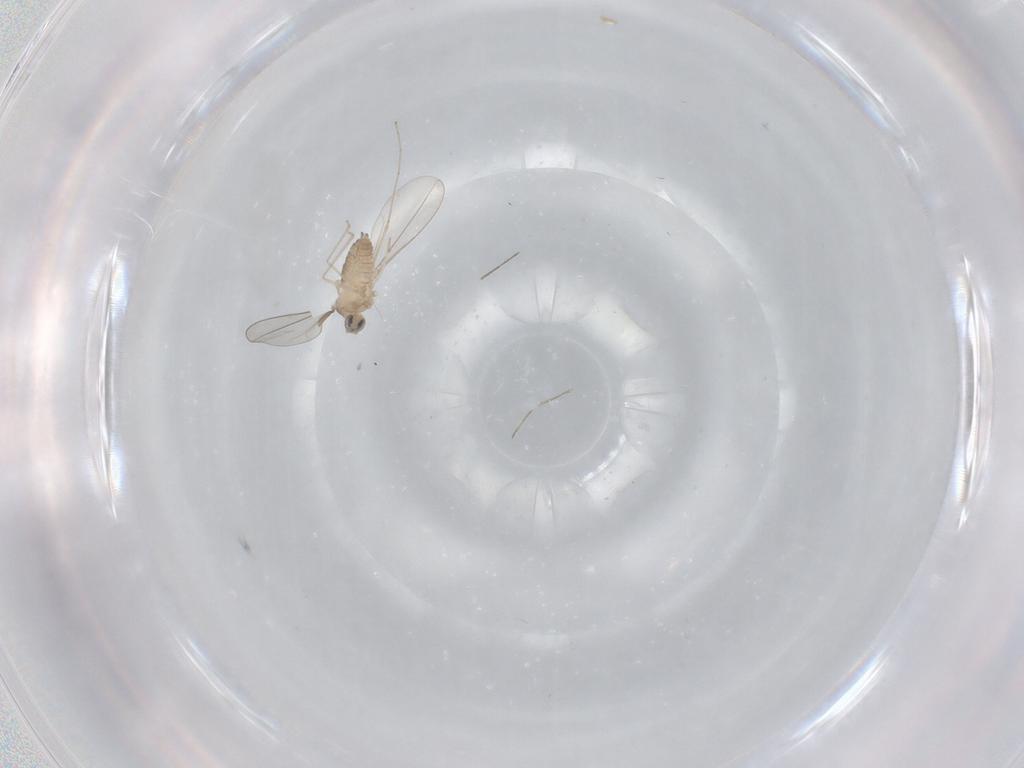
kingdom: Animalia
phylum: Arthropoda
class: Insecta
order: Diptera
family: Cecidomyiidae
